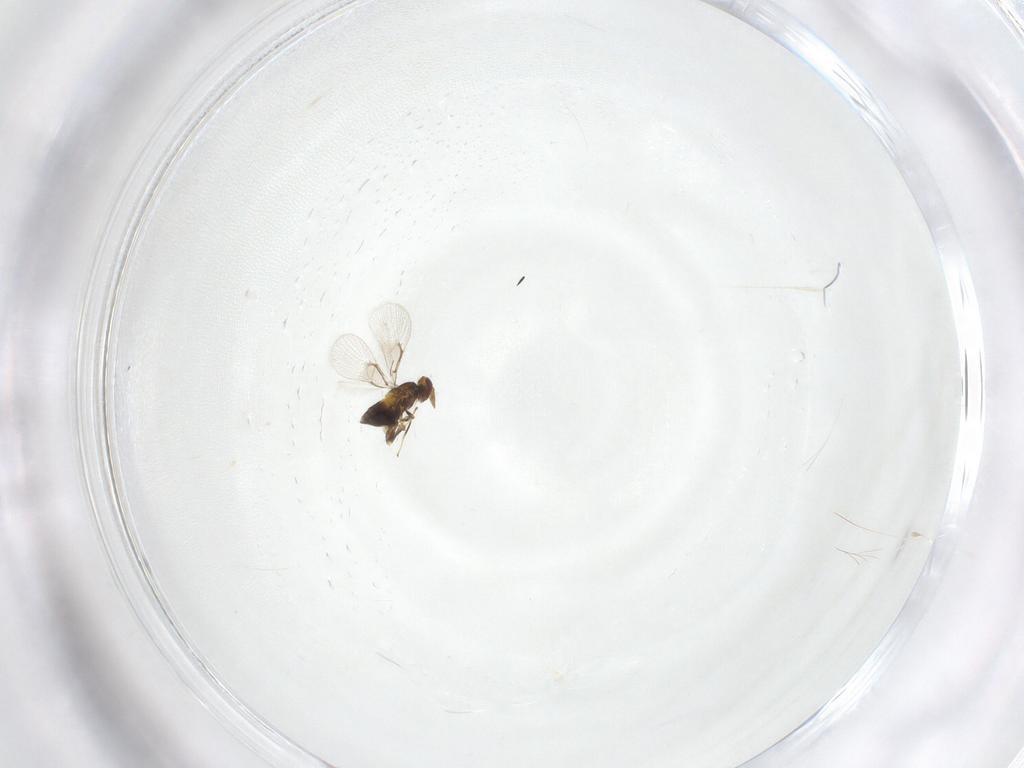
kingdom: Animalia
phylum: Arthropoda
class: Insecta
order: Hymenoptera
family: Trichogrammatidae
